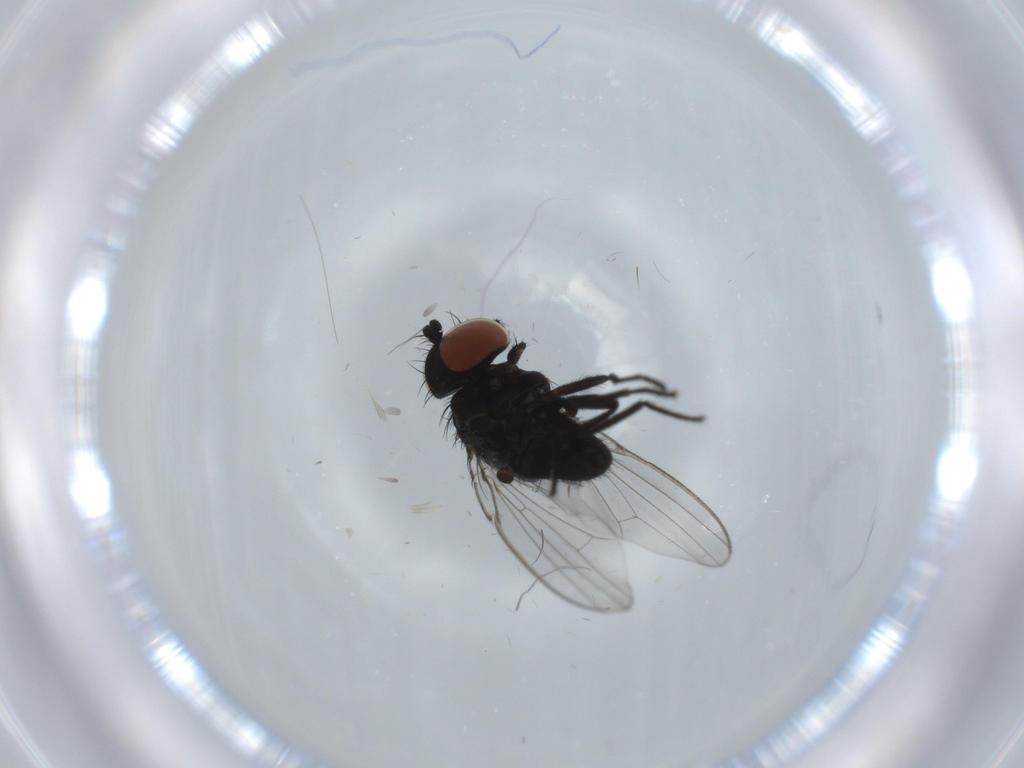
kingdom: Animalia
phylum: Arthropoda
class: Insecta
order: Diptera
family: Milichiidae
